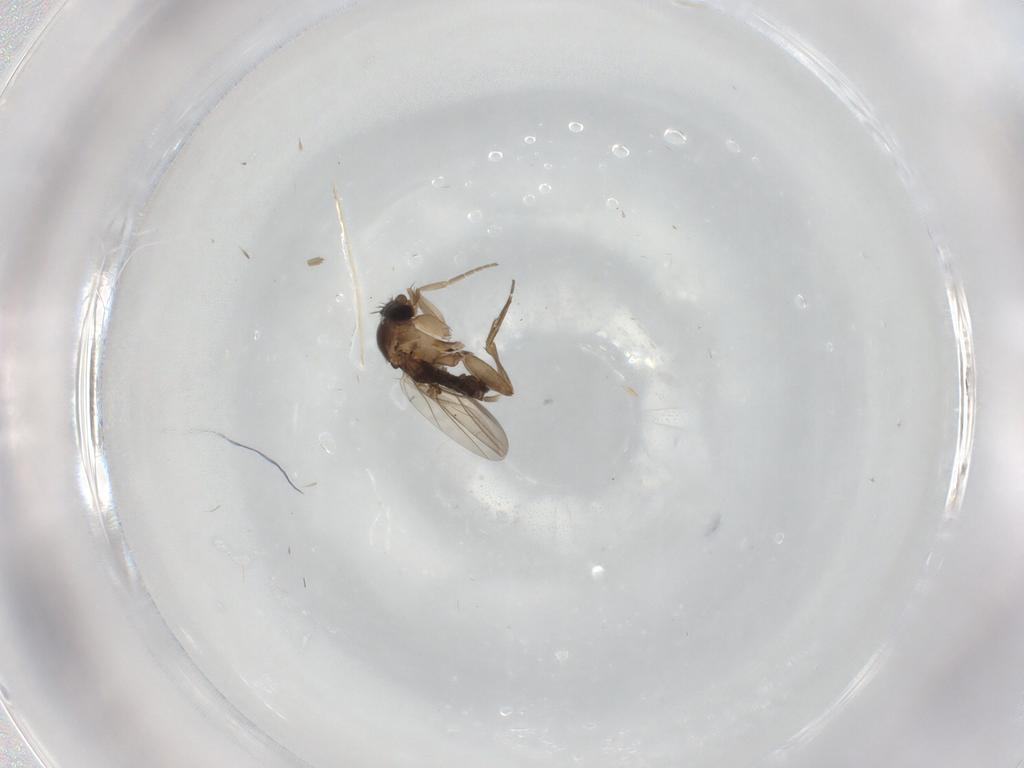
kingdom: Animalia
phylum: Arthropoda
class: Insecta
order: Diptera
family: Phoridae
